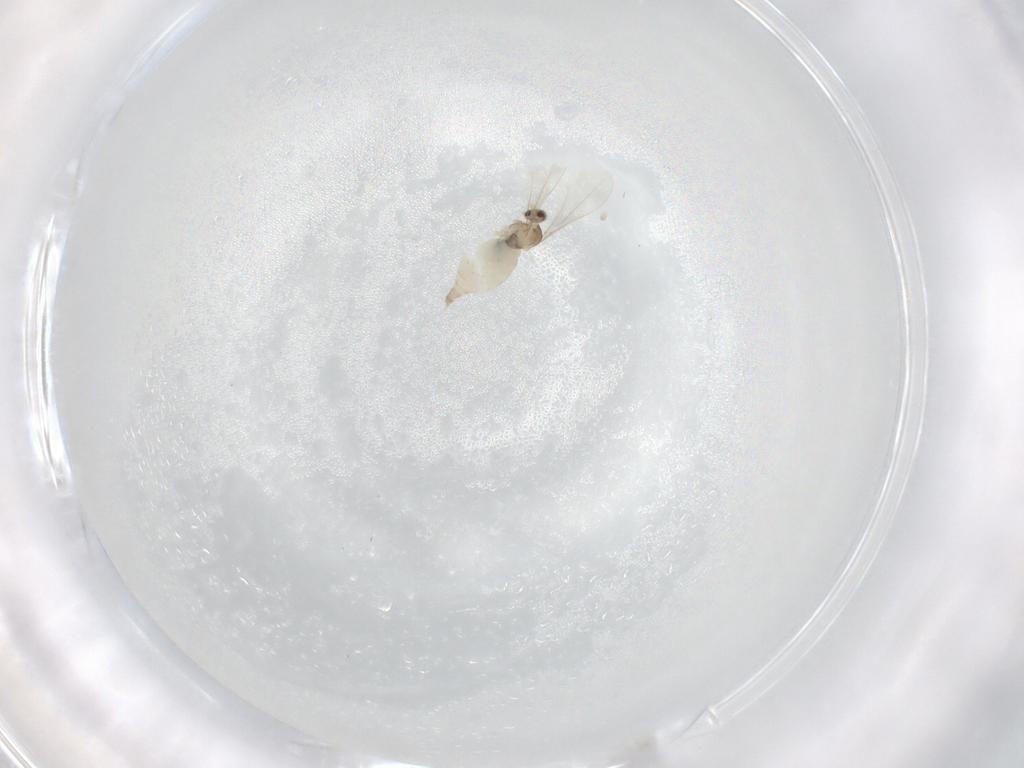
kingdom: Animalia
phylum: Arthropoda
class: Insecta
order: Diptera
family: Cecidomyiidae
